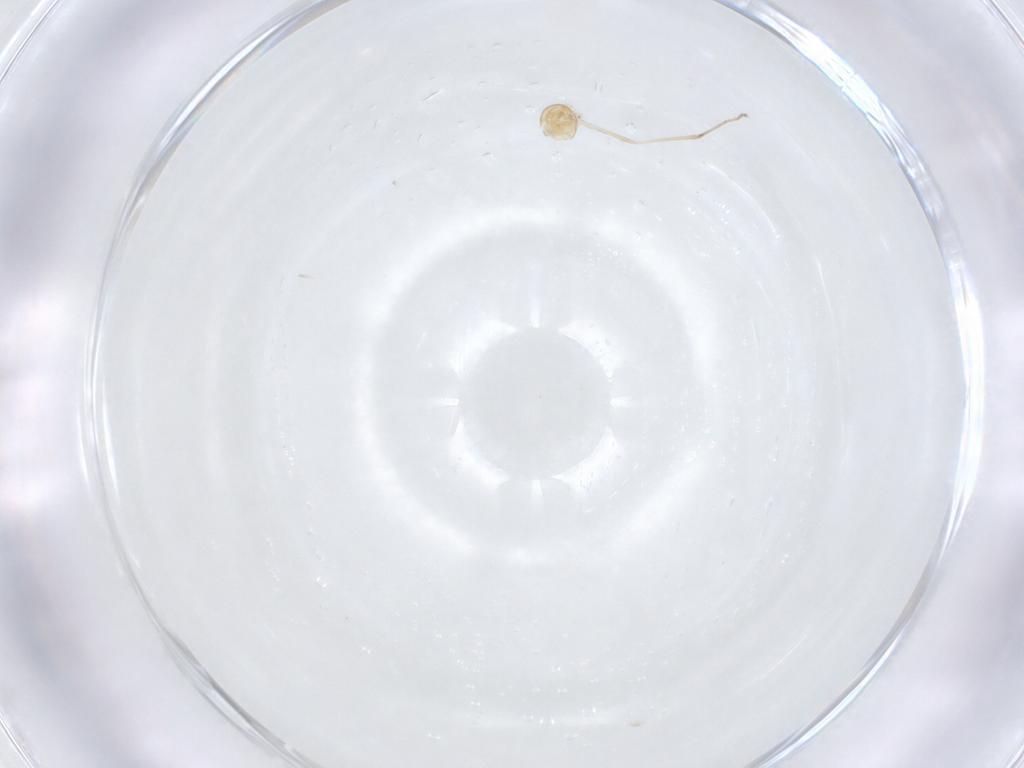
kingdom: Animalia
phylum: Arthropoda
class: Insecta
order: Diptera
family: Cecidomyiidae
